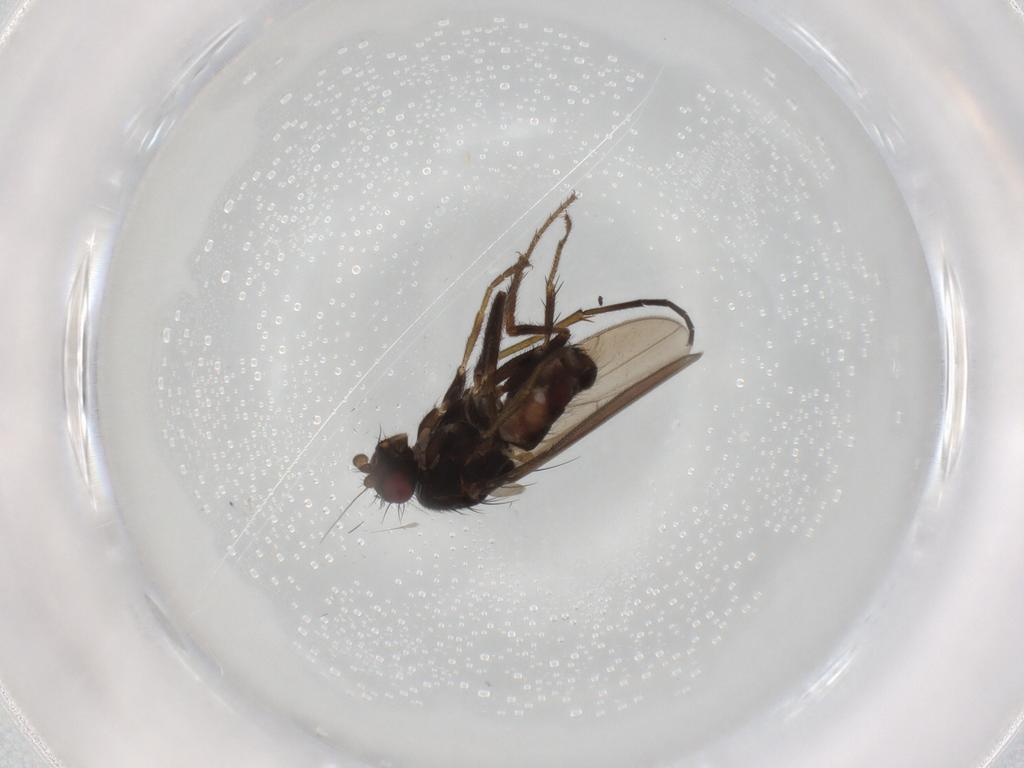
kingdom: Animalia
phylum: Arthropoda
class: Insecta
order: Diptera
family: Sphaeroceridae
